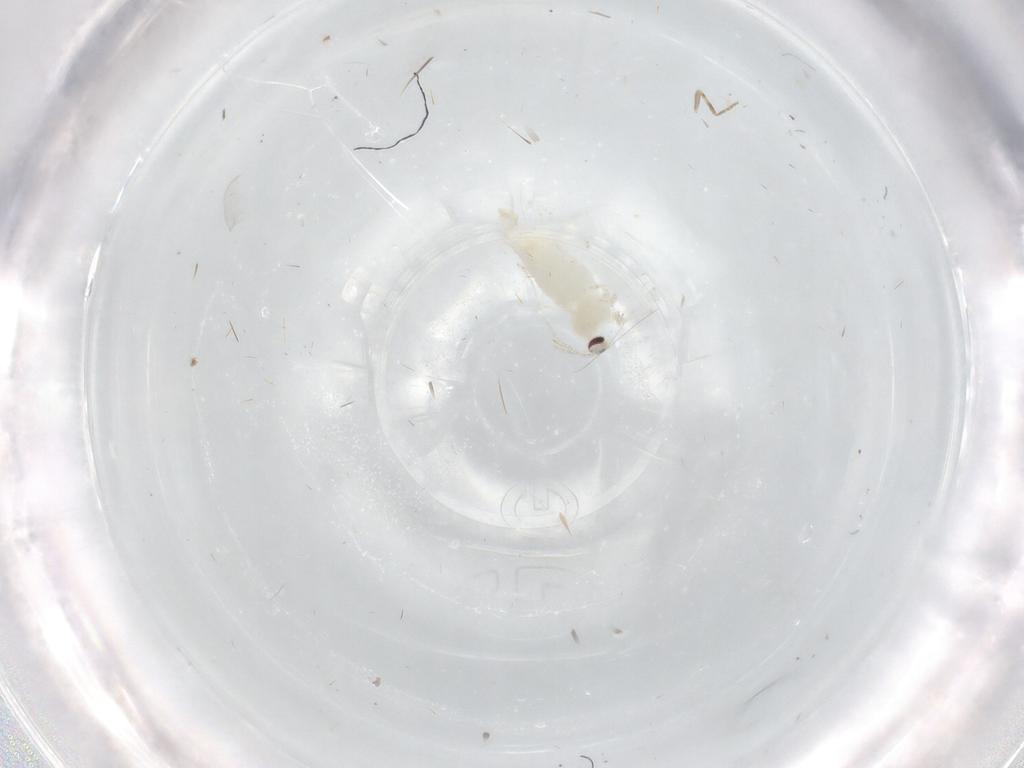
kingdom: Animalia
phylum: Arthropoda
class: Insecta
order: Diptera
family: Cecidomyiidae
